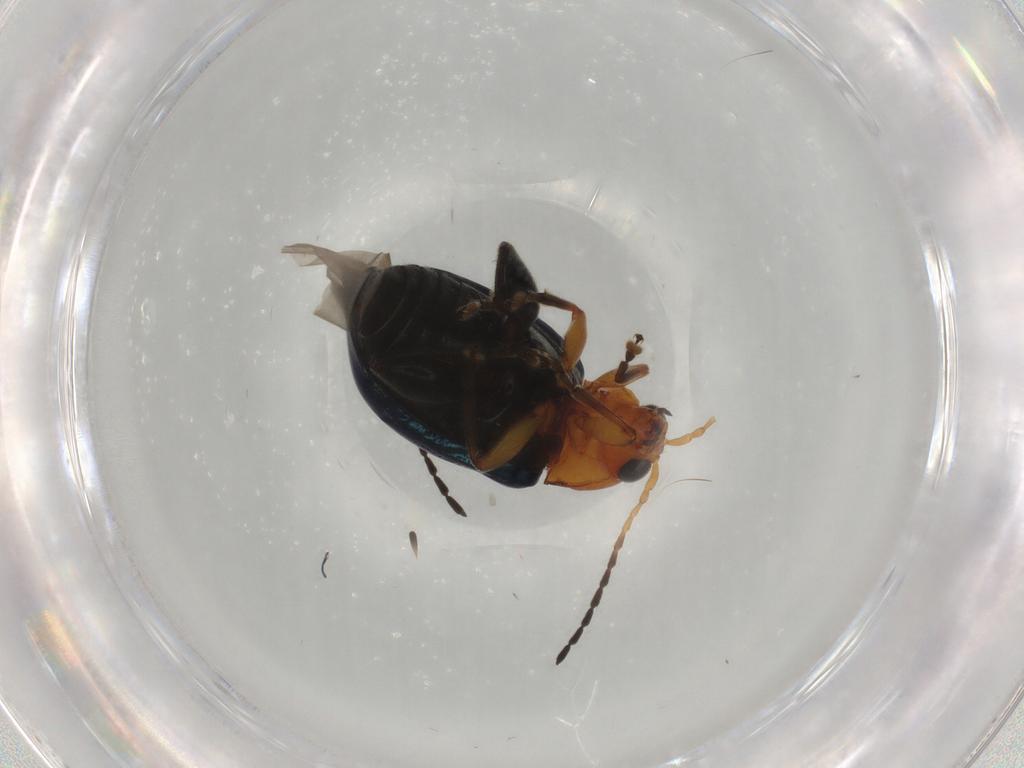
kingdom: Animalia
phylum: Arthropoda
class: Insecta
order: Coleoptera
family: Chrysomelidae
